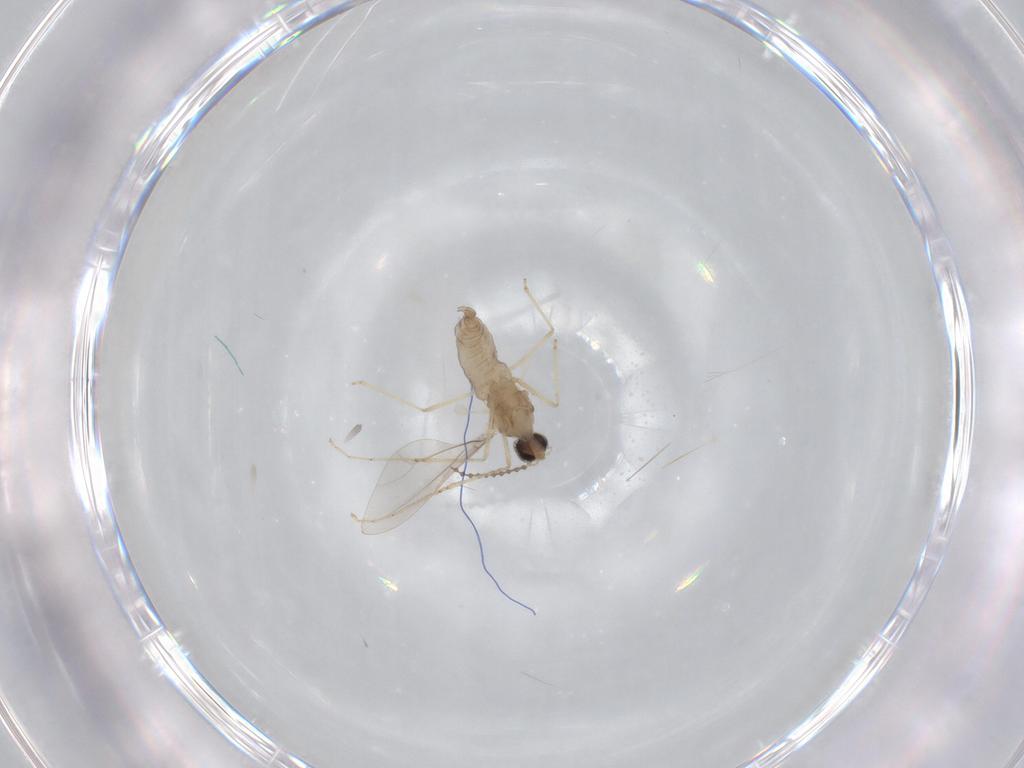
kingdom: Animalia
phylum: Arthropoda
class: Insecta
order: Diptera
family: Cecidomyiidae
